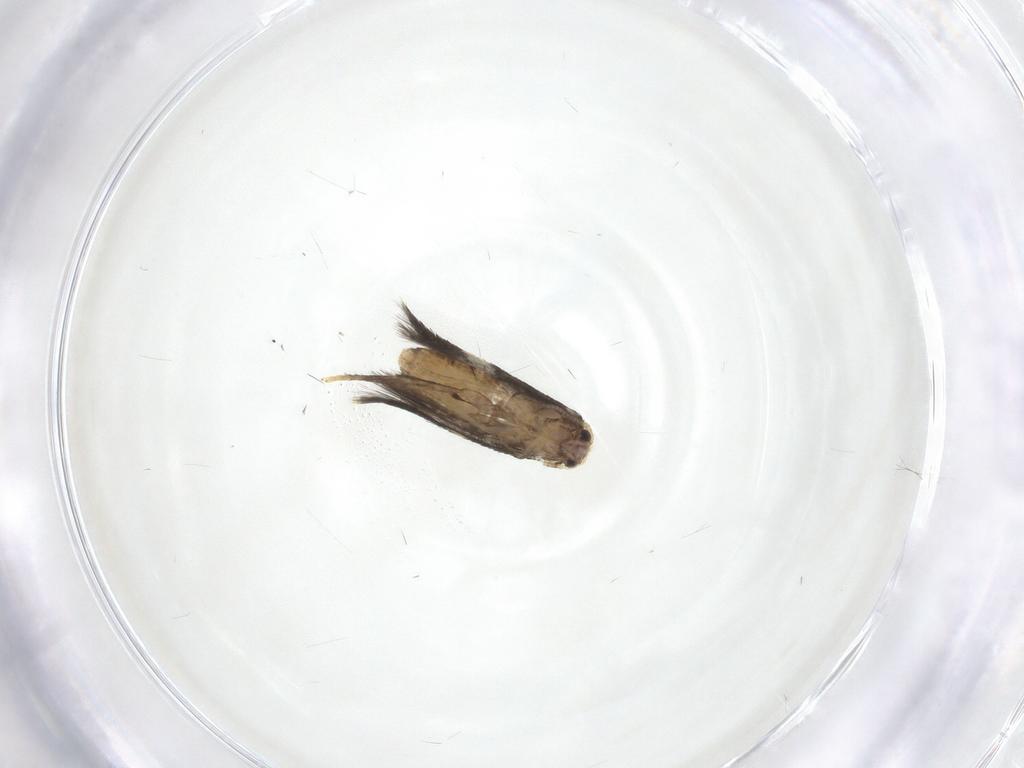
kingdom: Animalia
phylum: Arthropoda
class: Insecta
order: Lepidoptera
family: Nepticulidae
